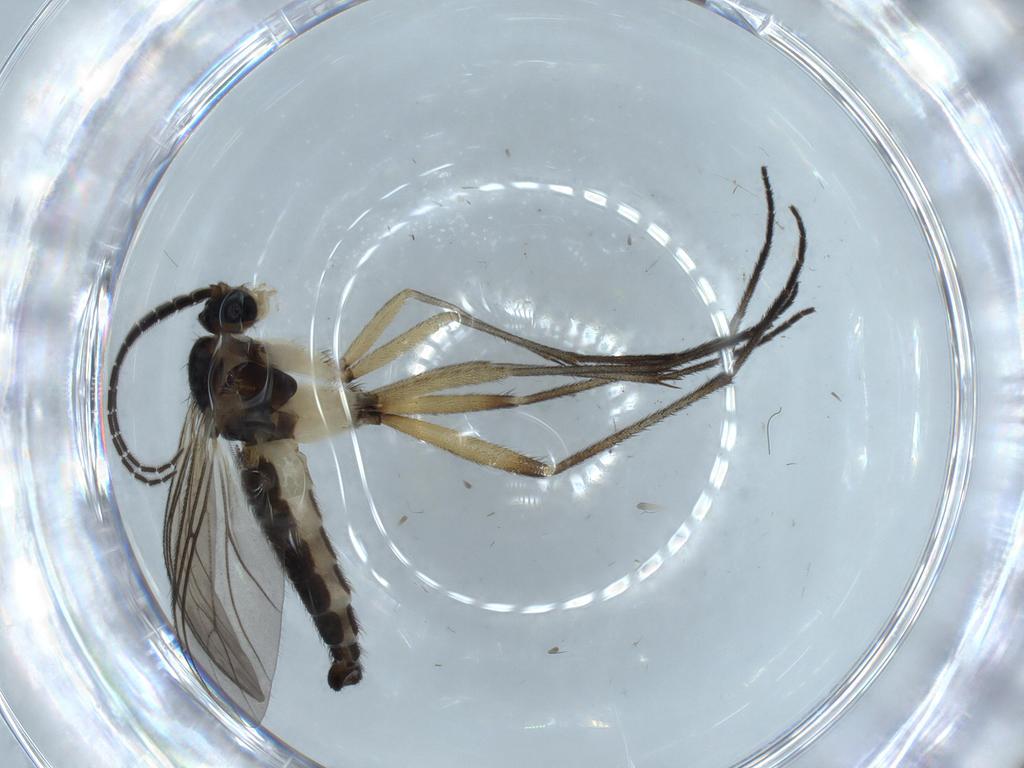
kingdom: Animalia
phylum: Arthropoda
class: Insecta
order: Diptera
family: Sciaridae
